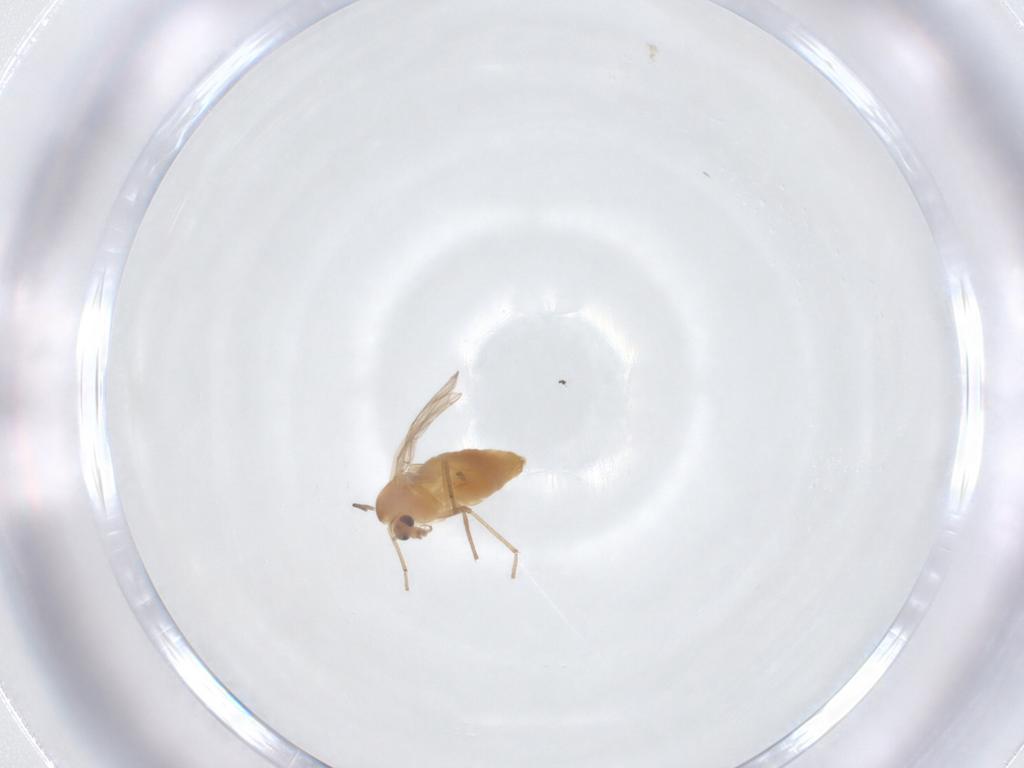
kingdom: Animalia
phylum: Arthropoda
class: Insecta
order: Diptera
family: Chironomidae
